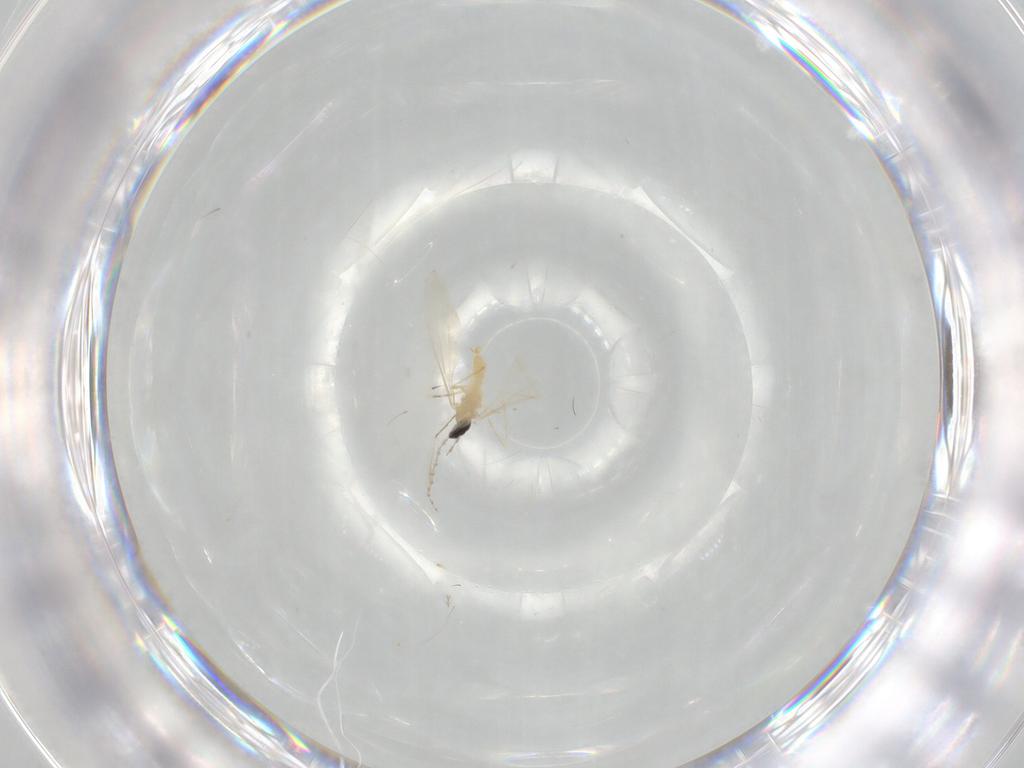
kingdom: Animalia
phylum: Arthropoda
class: Insecta
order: Diptera
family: Cecidomyiidae
